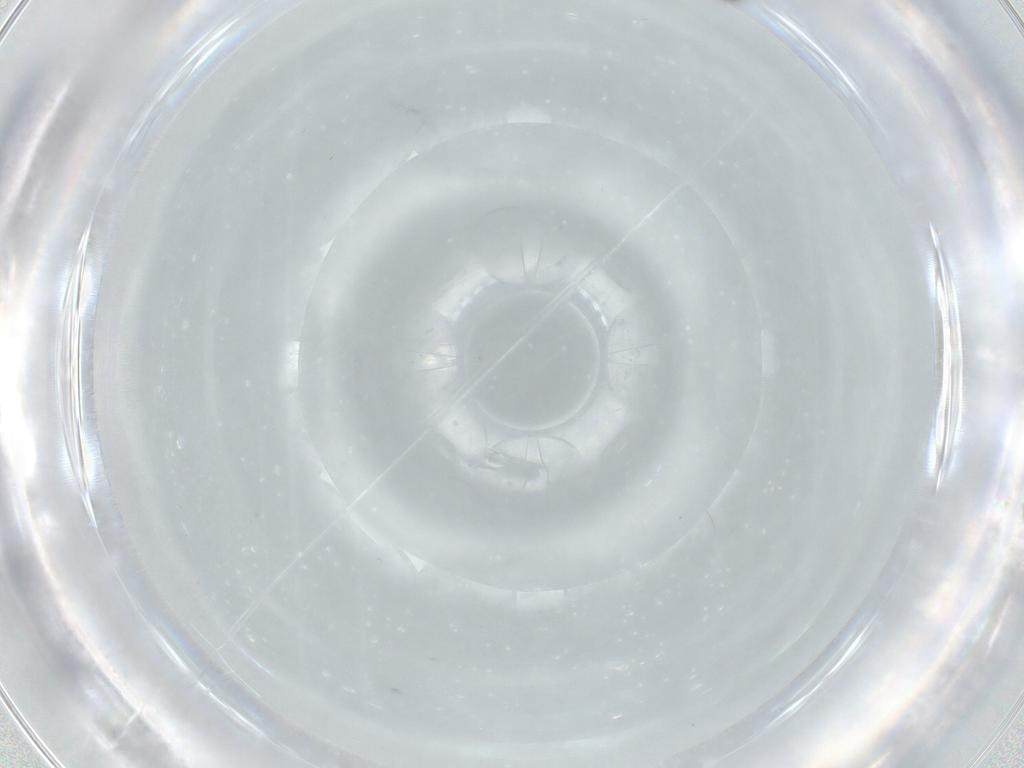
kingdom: Animalia
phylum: Arthropoda
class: Insecta
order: Diptera
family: Chironomidae
